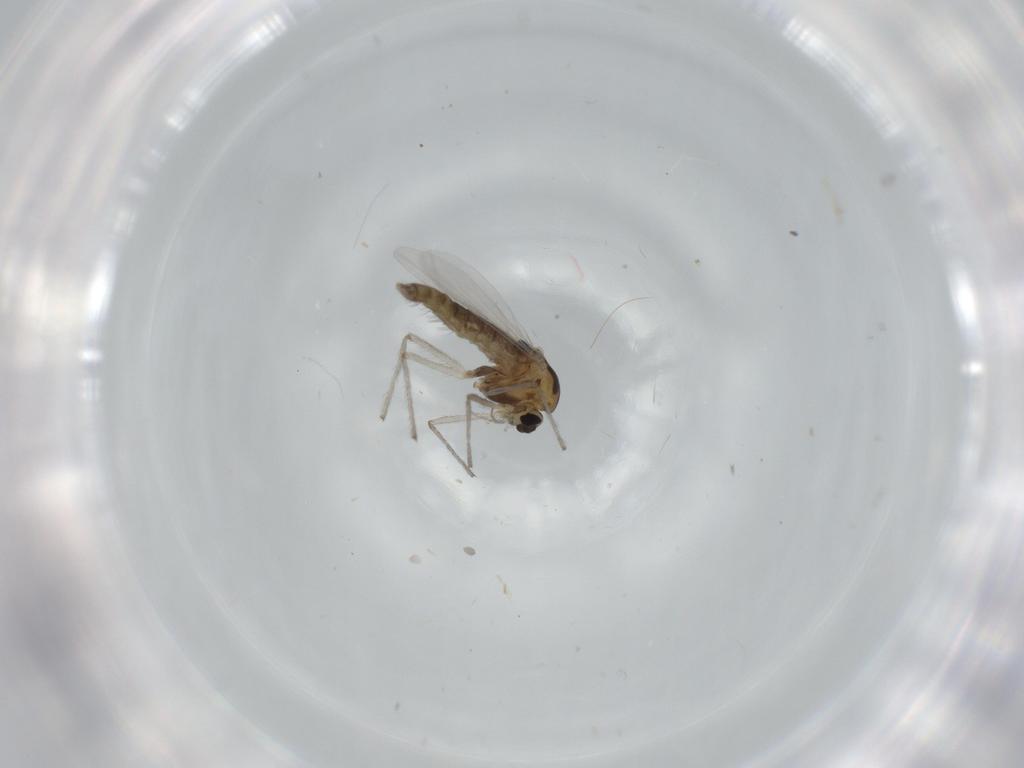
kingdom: Animalia
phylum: Arthropoda
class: Insecta
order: Diptera
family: Chironomidae
